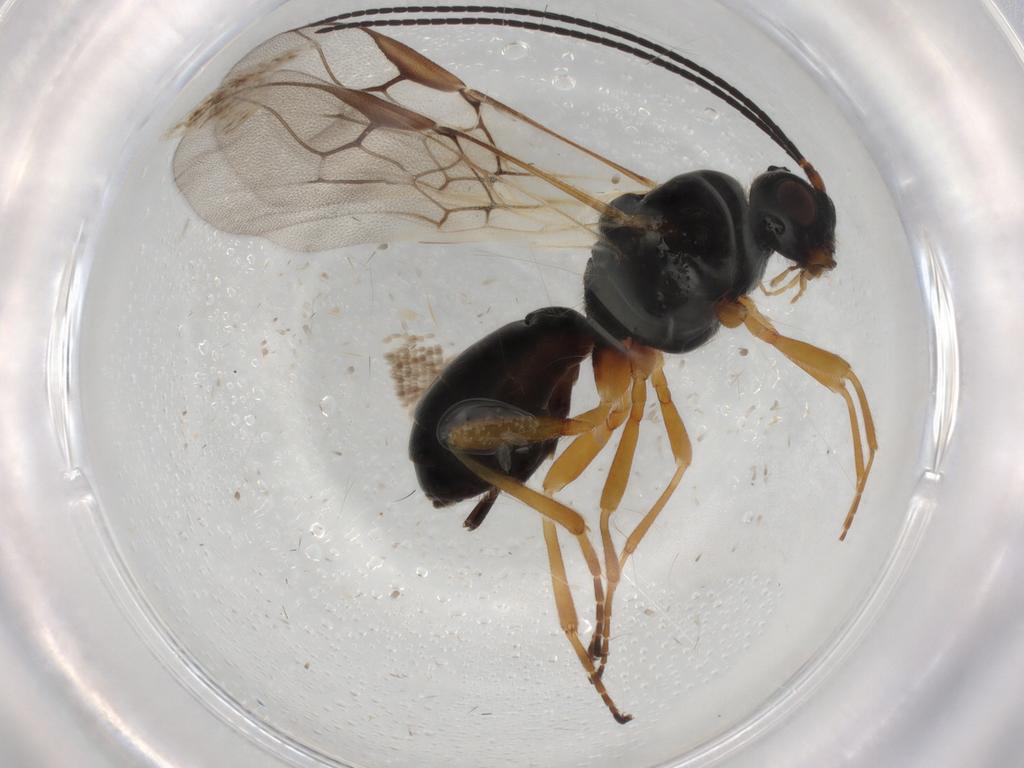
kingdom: Animalia
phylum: Arthropoda
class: Insecta
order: Hymenoptera
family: Braconidae
